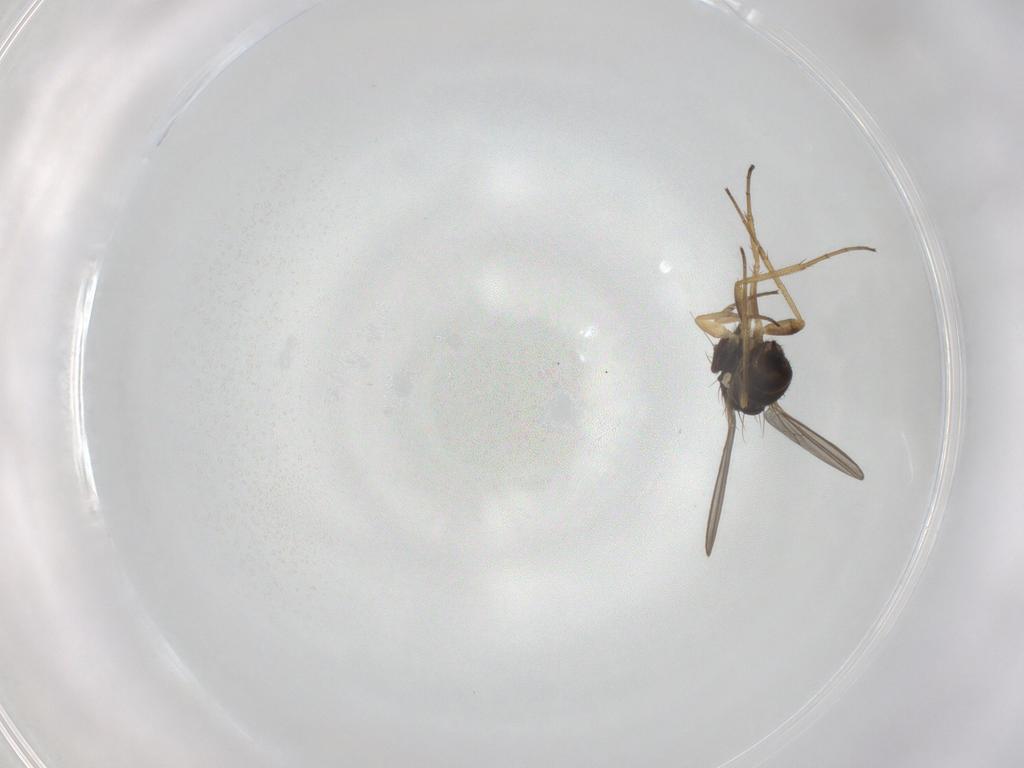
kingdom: Animalia
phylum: Arthropoda
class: Insecta
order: Diptera
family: Dolichopodidae
